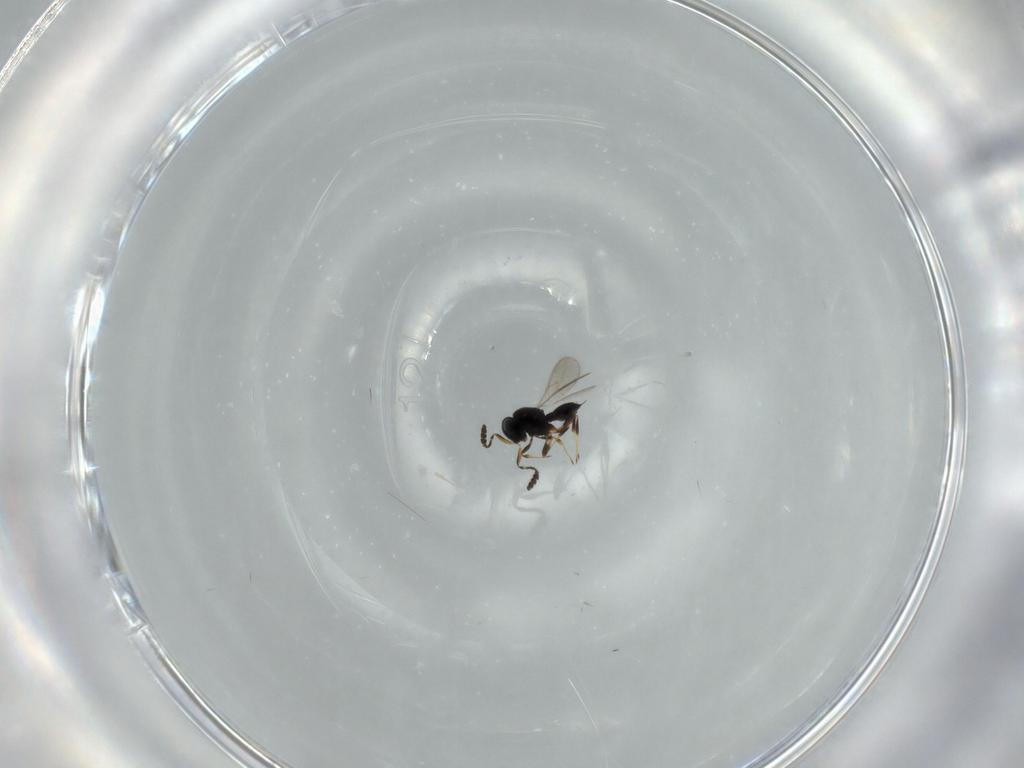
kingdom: Animalia
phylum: Arthropoda
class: Insecta
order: Hymenoptera
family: Scelionidae
